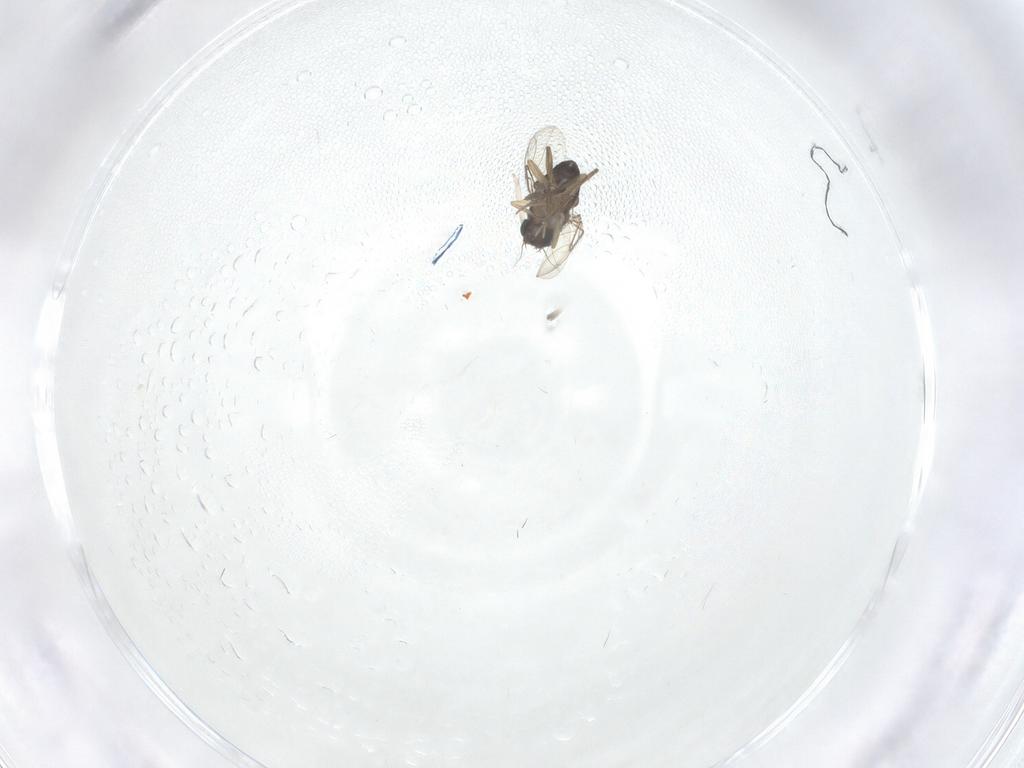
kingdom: Animalia
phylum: Arthropoda
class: Insecta
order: Diptera
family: Cecidomyiidae
